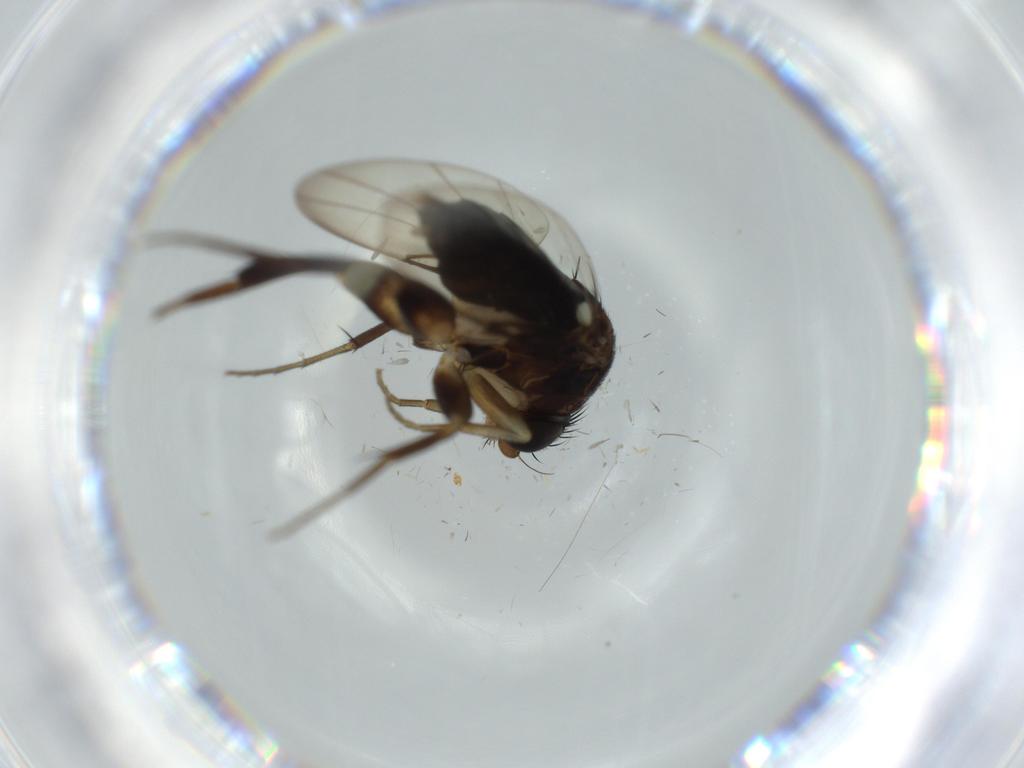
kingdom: Animalia
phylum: Arthropoda
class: Insecta
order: Diptera
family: Phoridae
